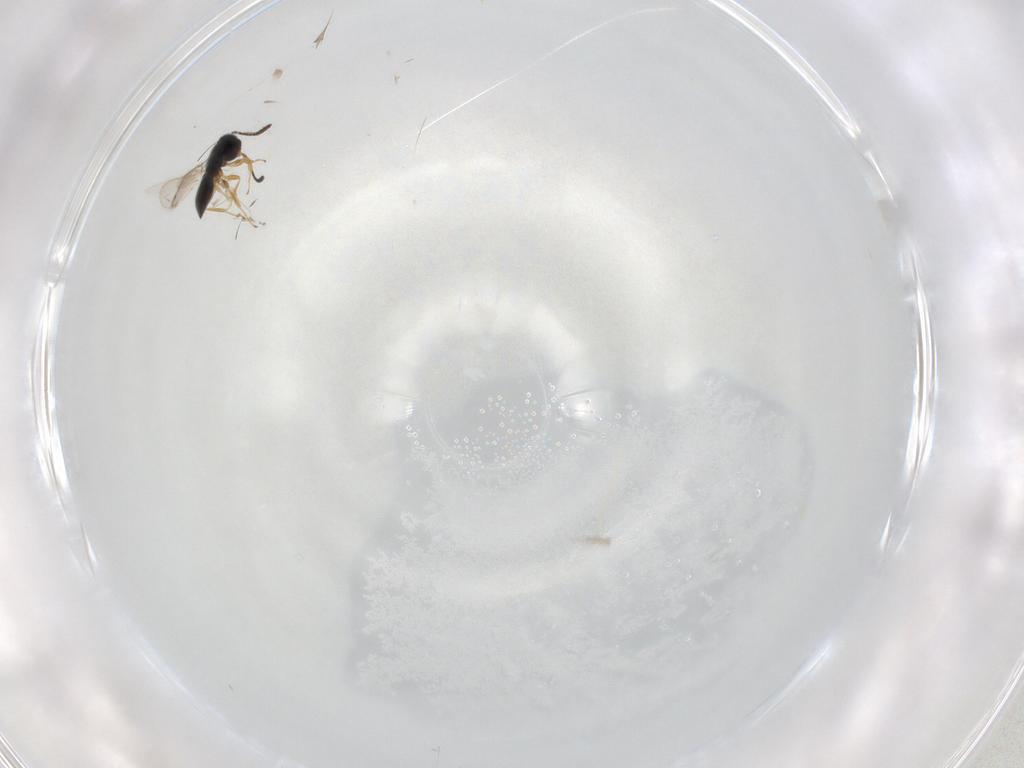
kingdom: Animalia
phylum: Arthropoda
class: Insecta
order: Hymenoptera
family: Scelionidae
